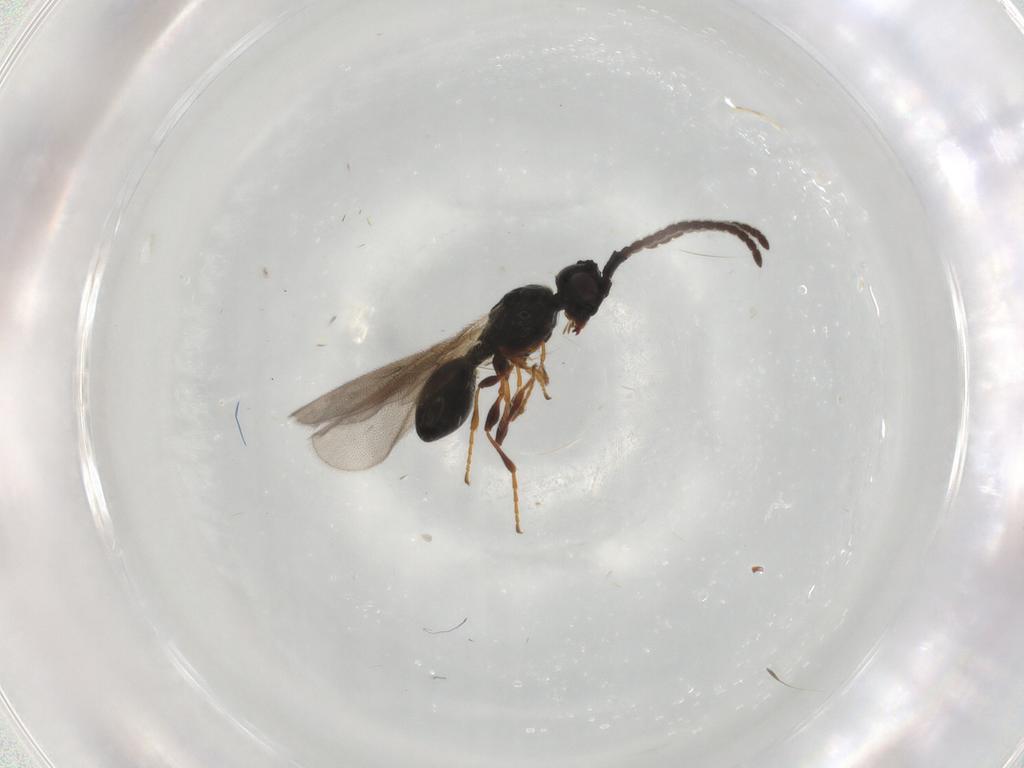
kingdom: Animalia
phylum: Arthropoda
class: Insecta
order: Hymenoptera
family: Diapriidae
